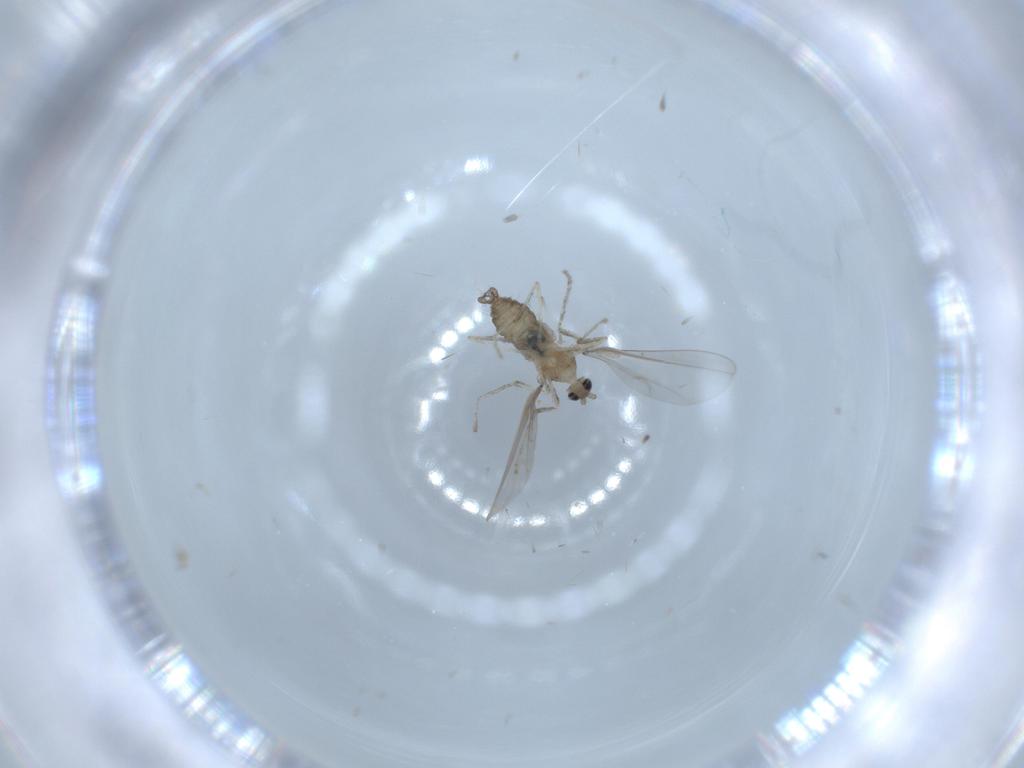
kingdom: Animalia
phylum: Arthropoda
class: Insecta
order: Diptera
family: Cecidomyiidae
